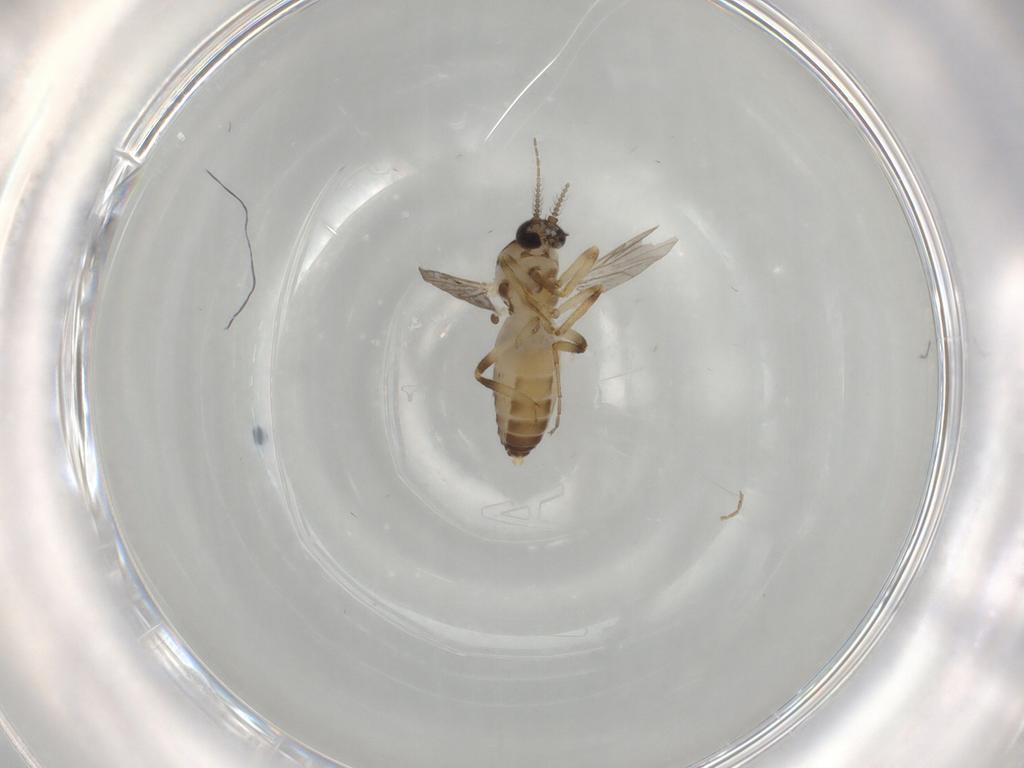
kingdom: Animalia
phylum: Arthropoda
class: Insecta
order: Diptera
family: Ceratopogonidae
